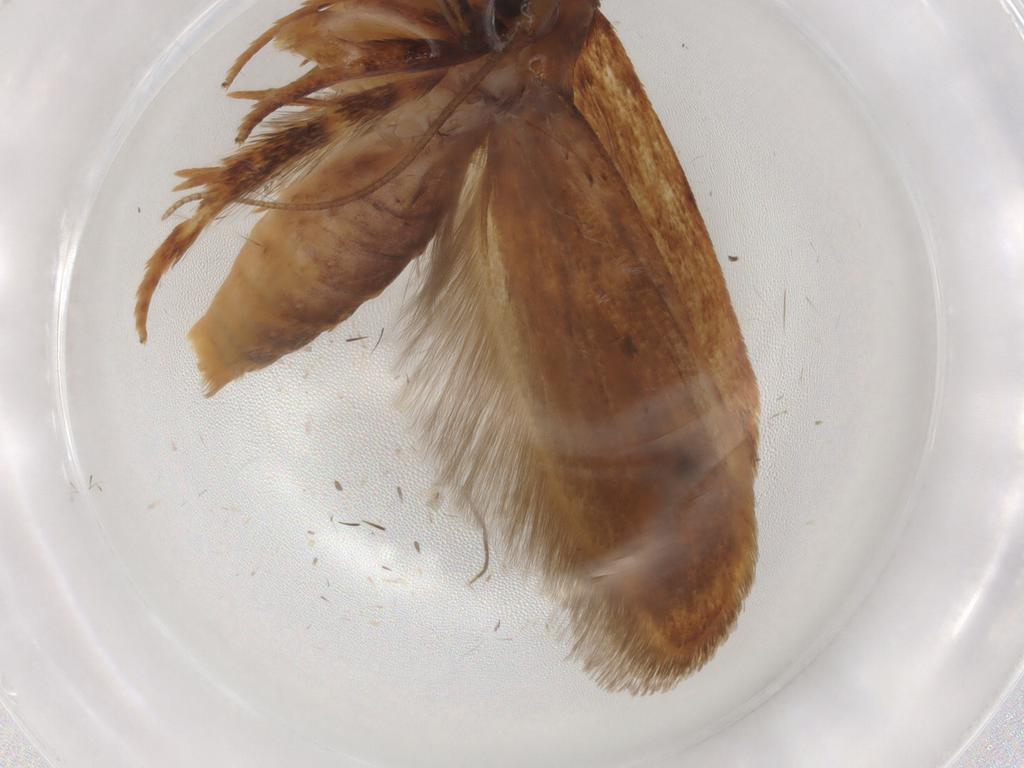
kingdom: Animalia
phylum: Arthropoda
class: Insecta
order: Lepidoptera
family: Blastobasidae
